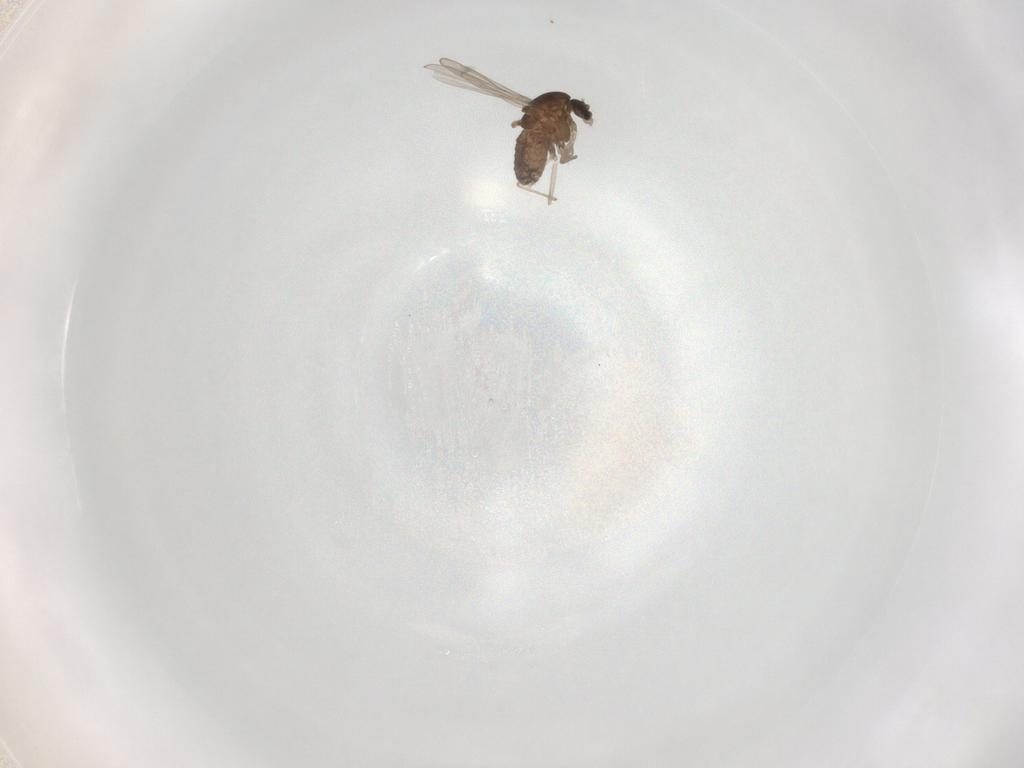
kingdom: Animalia
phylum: Arthropoda
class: Insecta
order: Diptera
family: Chironomidae
